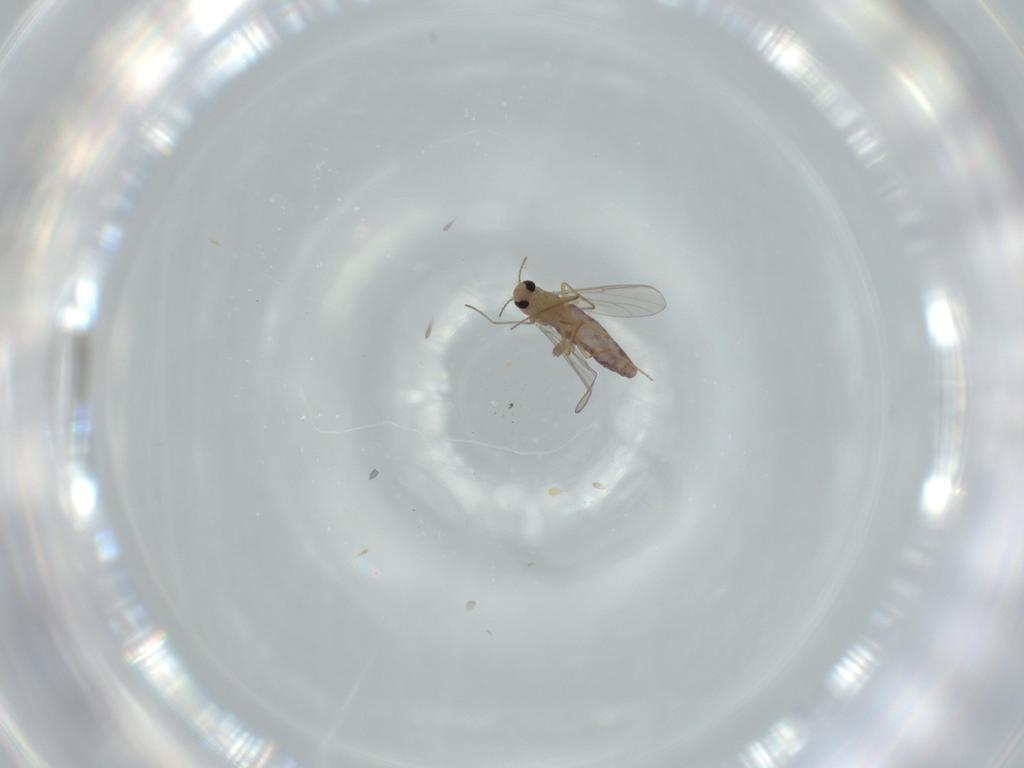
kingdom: Animalia
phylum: Arthropoda
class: Insecta
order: Diptera
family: Chironomidae
